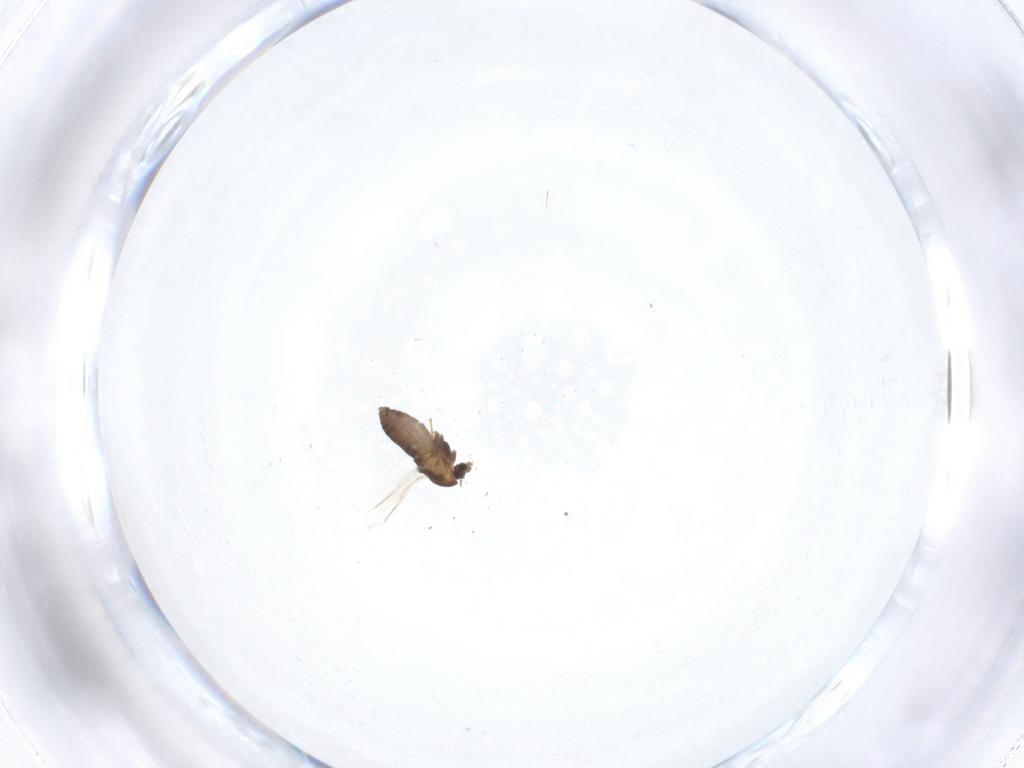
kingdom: Animalia
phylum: Arthropoda
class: Insecta
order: Diptera
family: Chironomidae
